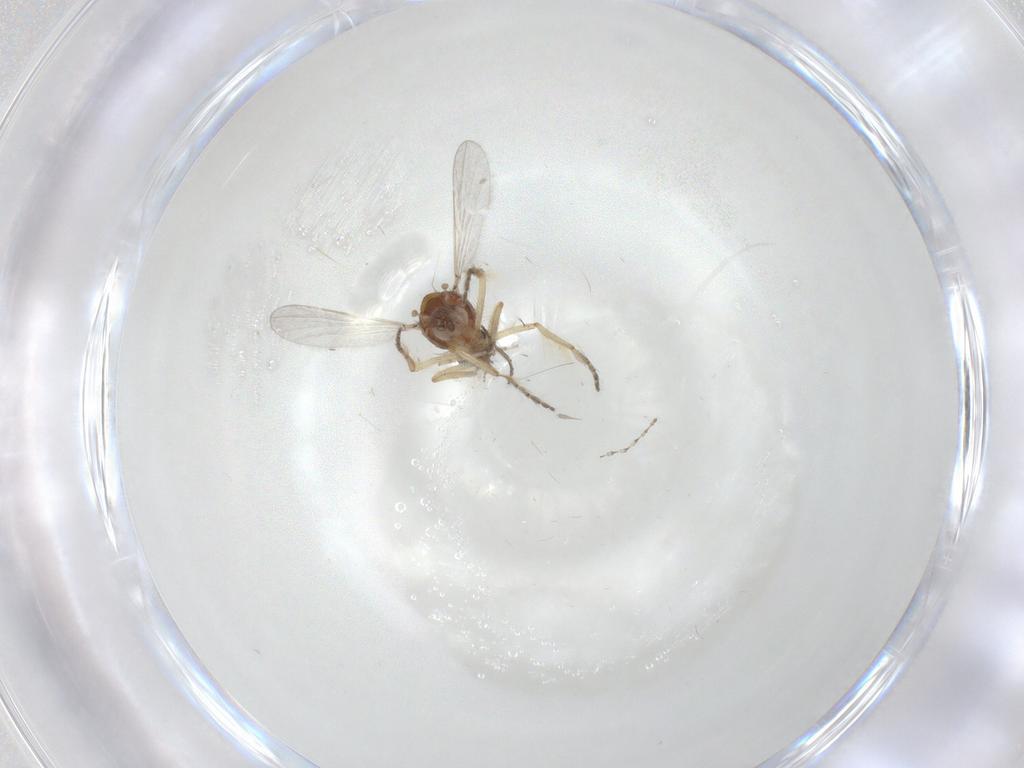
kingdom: Animalia
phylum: Arthropoda
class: Insecta
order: Diptera
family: Ceratopogonidae
